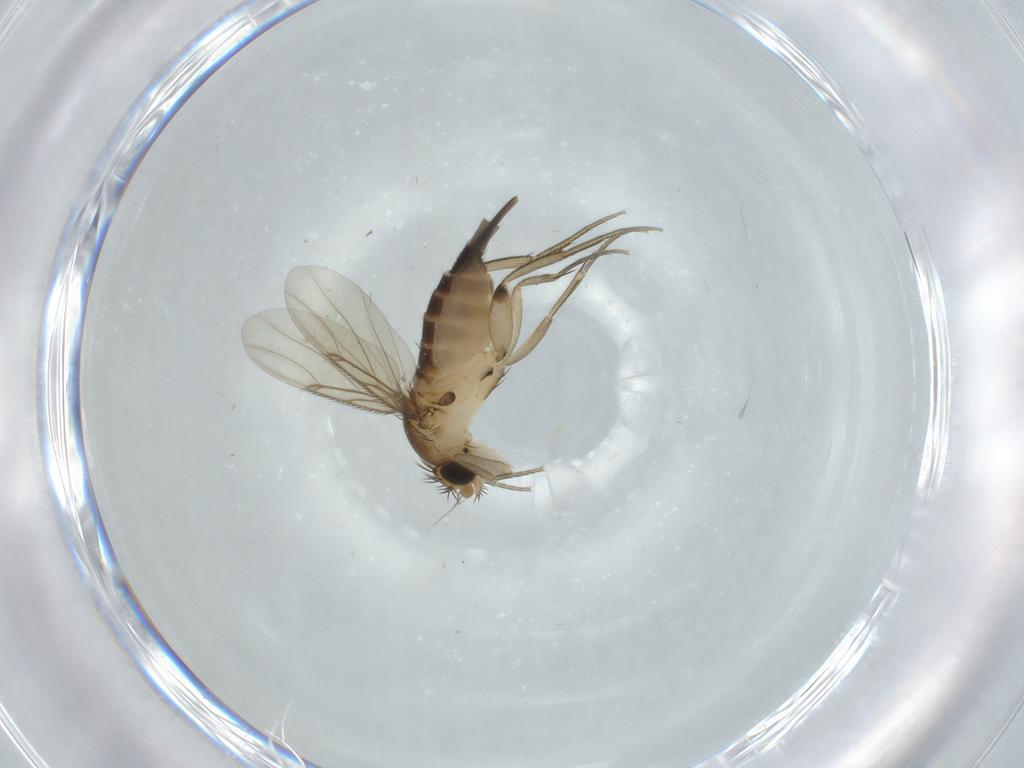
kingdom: Animalia
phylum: Arthropoda
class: Insecta
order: Diptera
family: Phoridae
